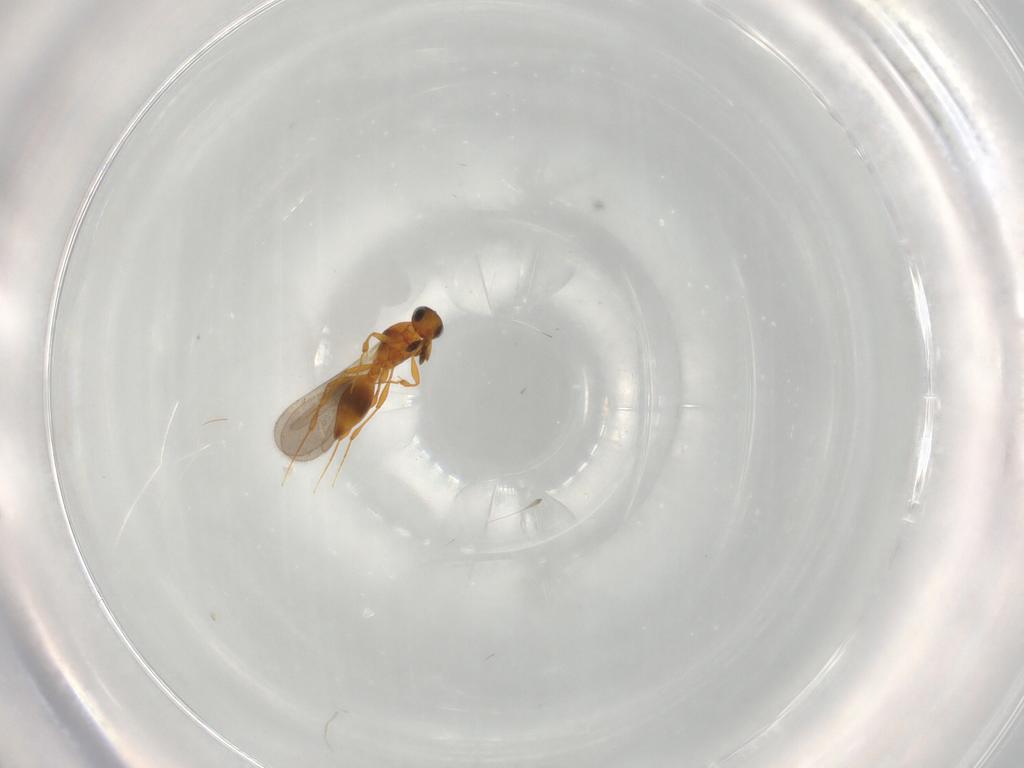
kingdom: Animalia
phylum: Arthropoda
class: Insecta
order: Hymenoptera
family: Platygastridae
